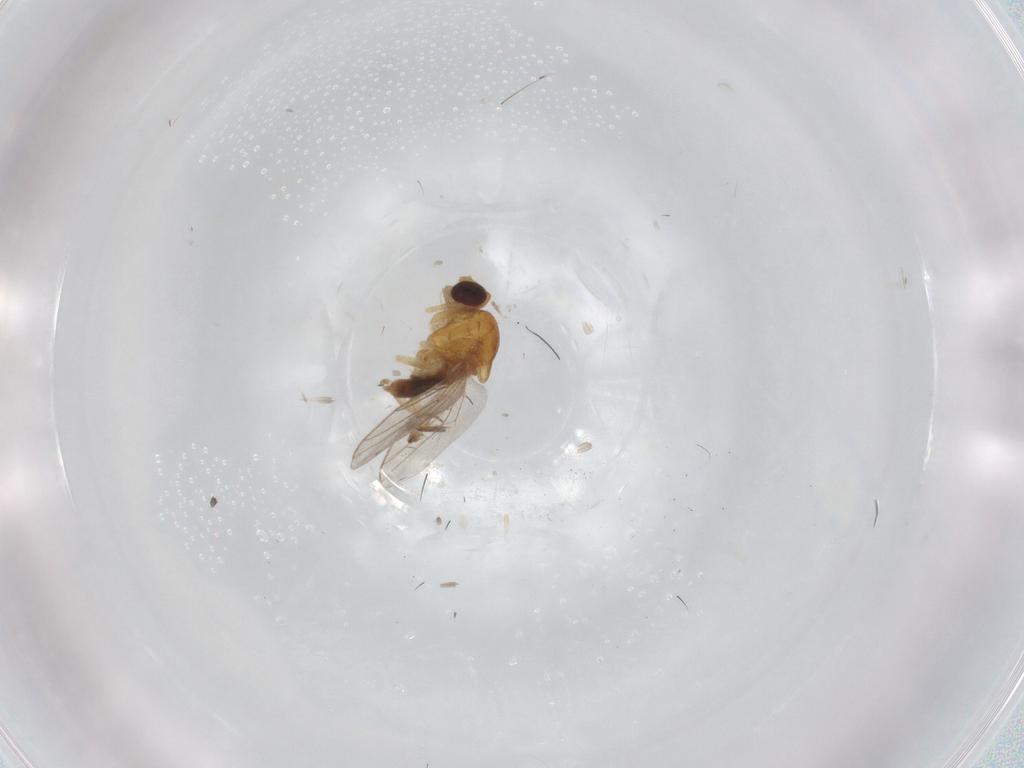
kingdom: Animalia
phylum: Arthropoda
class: Insecta
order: Diptera
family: Chloropidae
